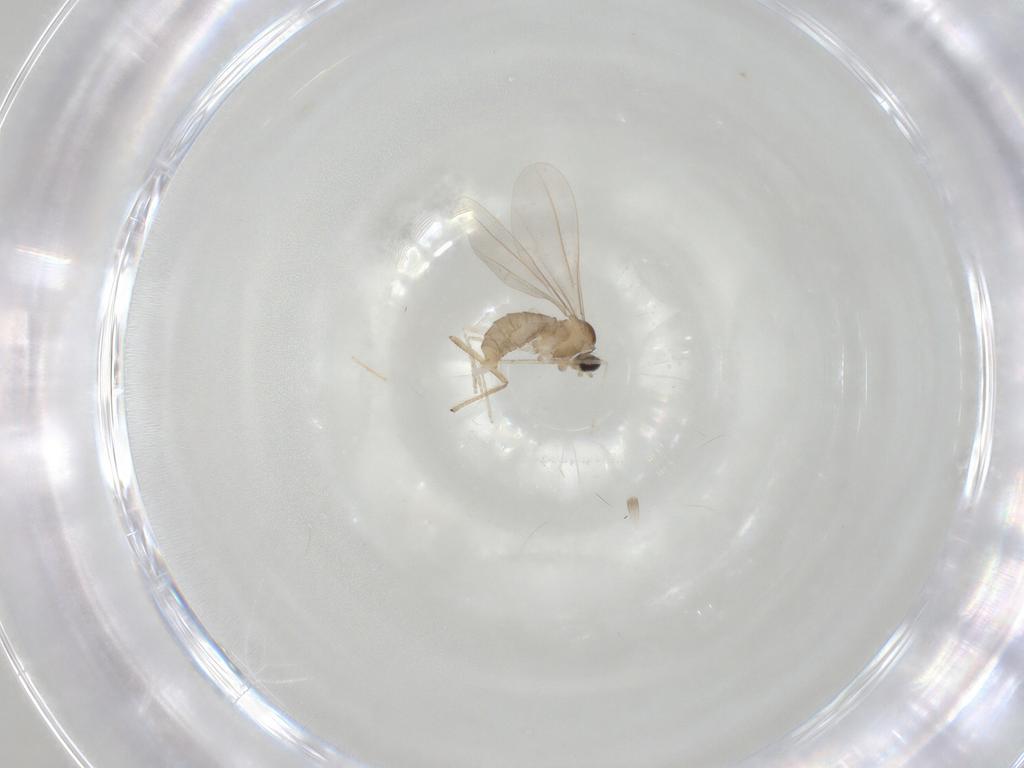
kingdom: Animalia
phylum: Arthropoda
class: Insecta
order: Diptera
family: Cecidomyiidae
